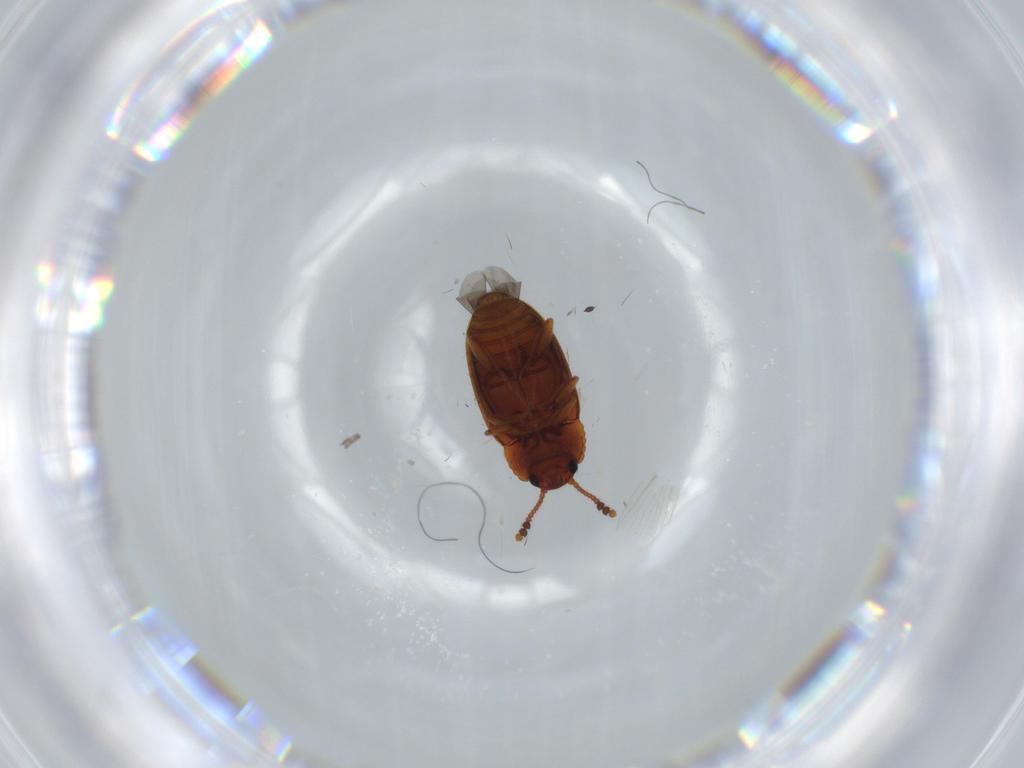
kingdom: Animalia
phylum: Arthropoda
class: Insecta
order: Coleoptera
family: Erotylidae
